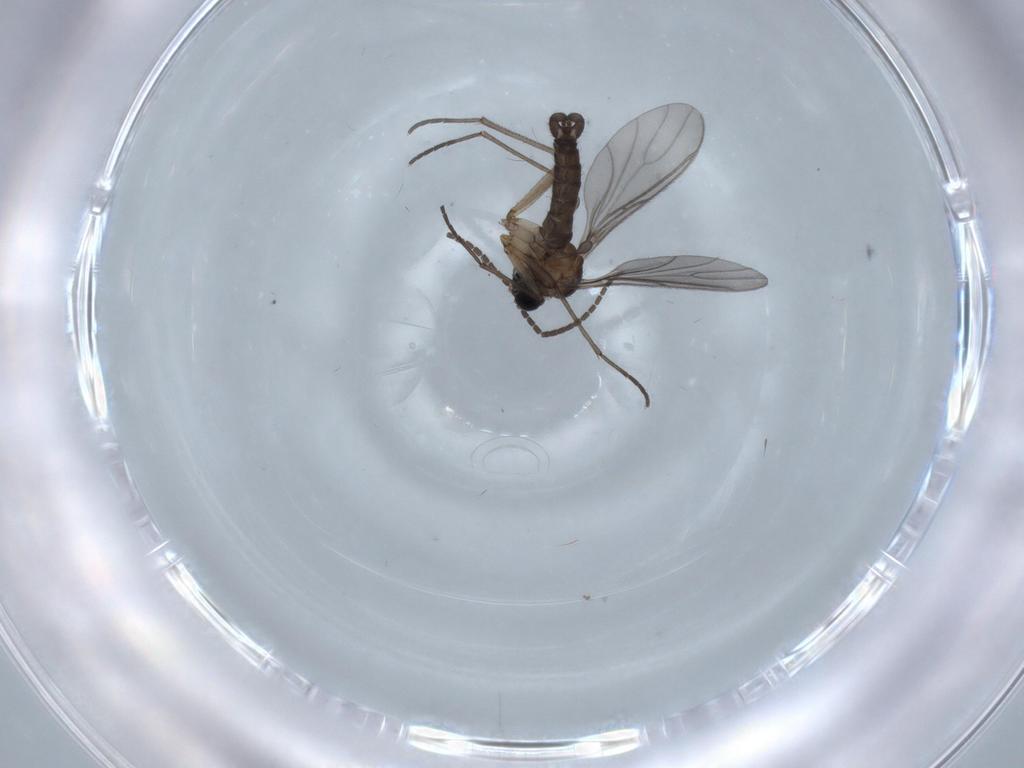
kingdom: Animalia
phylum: Arthropoda
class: Insecta
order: Diptera
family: Sciaridae
